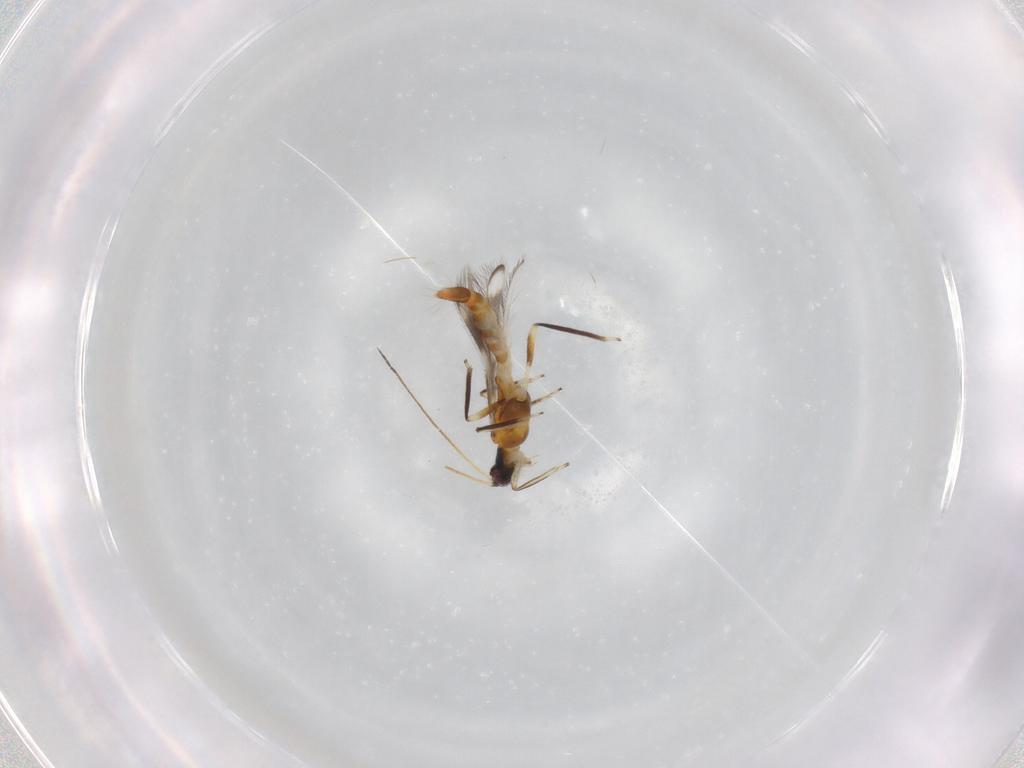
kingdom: Animalia
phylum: Arthropoda
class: Insecta
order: Thysanoptera
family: Aeolothripidae
